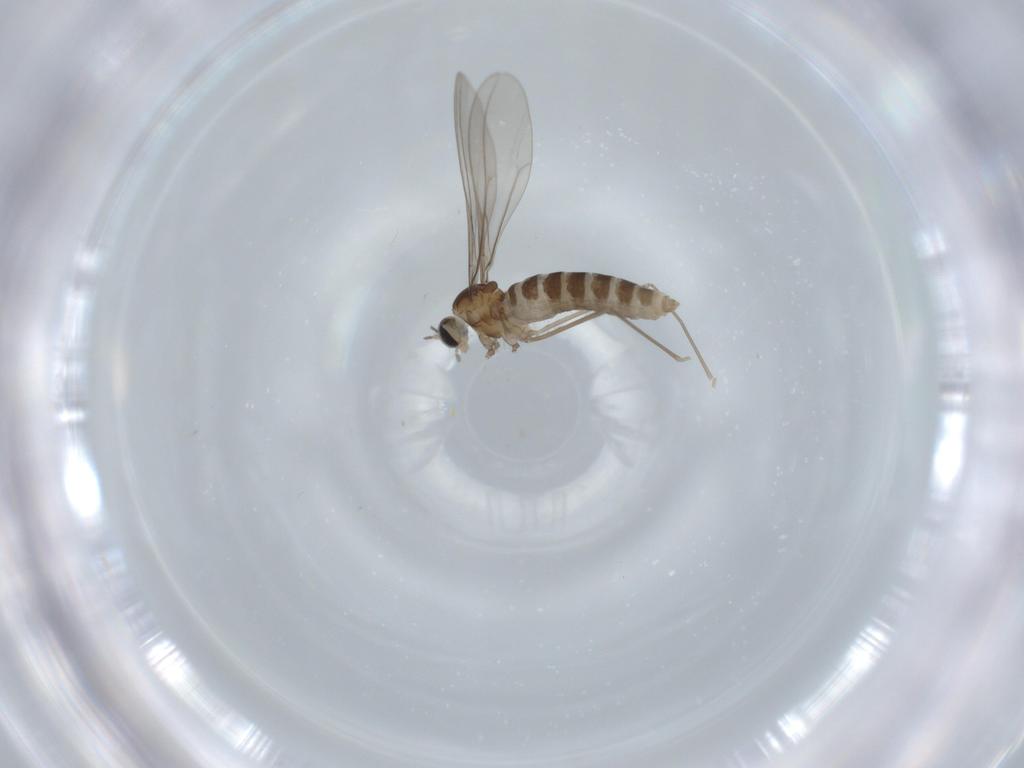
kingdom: Animalia
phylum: Arthropoda
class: Insecta
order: Diptera
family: Cecidomyiidae
